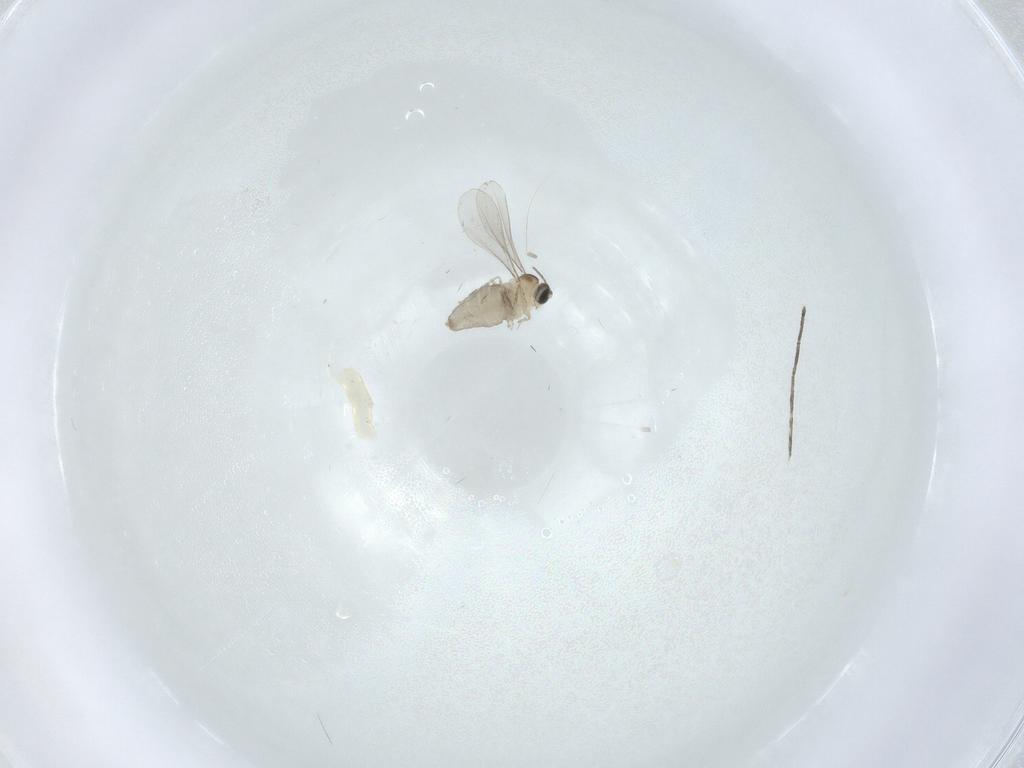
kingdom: Animalia
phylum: Arthropoda
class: Insecta
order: Diptera
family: Cecidomyiidae
